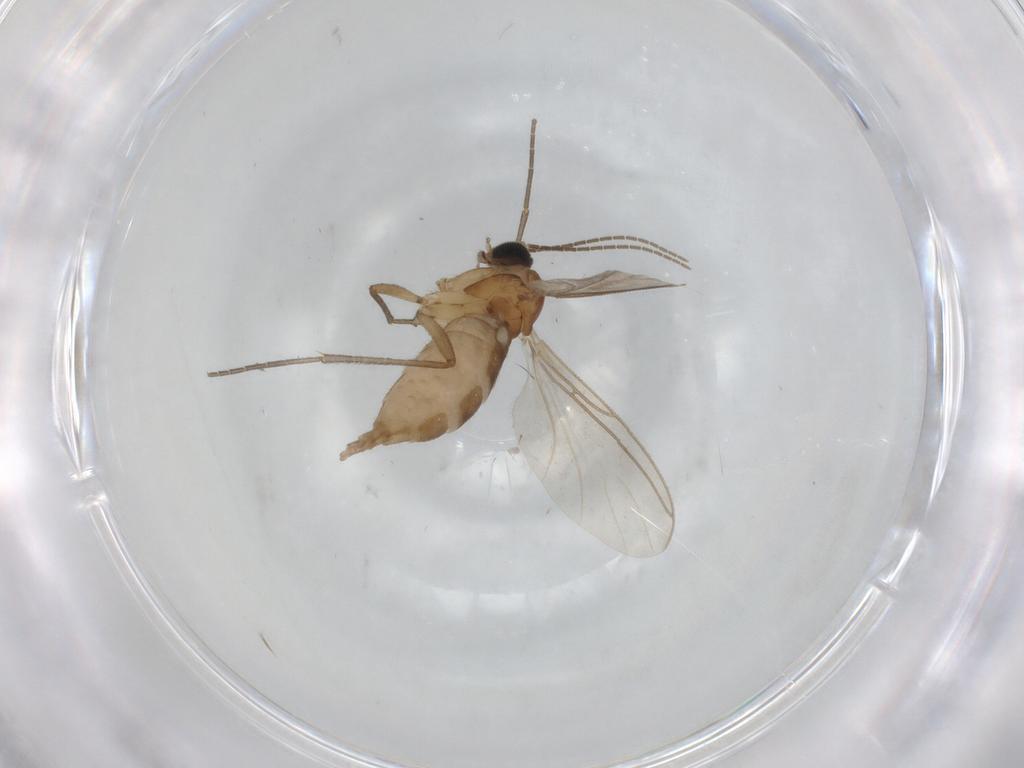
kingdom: Animalia
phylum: Arthropoda
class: Insecta
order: Diptera
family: Sciaridae
